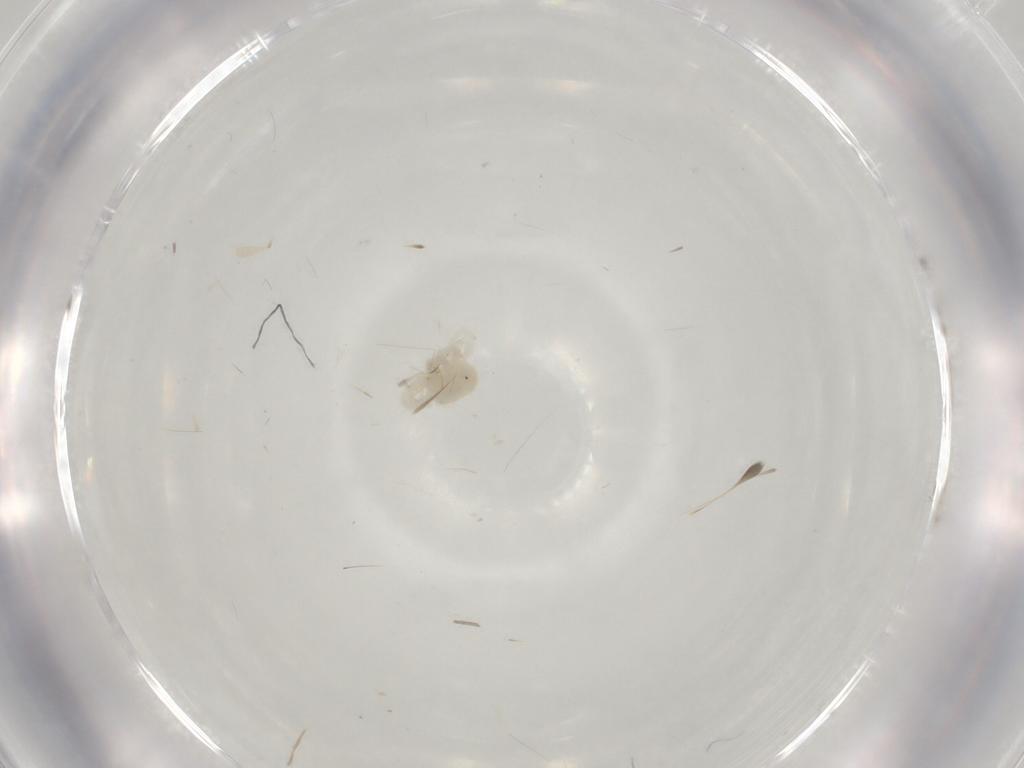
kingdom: Animalia
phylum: Arthropoda
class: Arachnida
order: Trombidiformes
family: Anystidae
